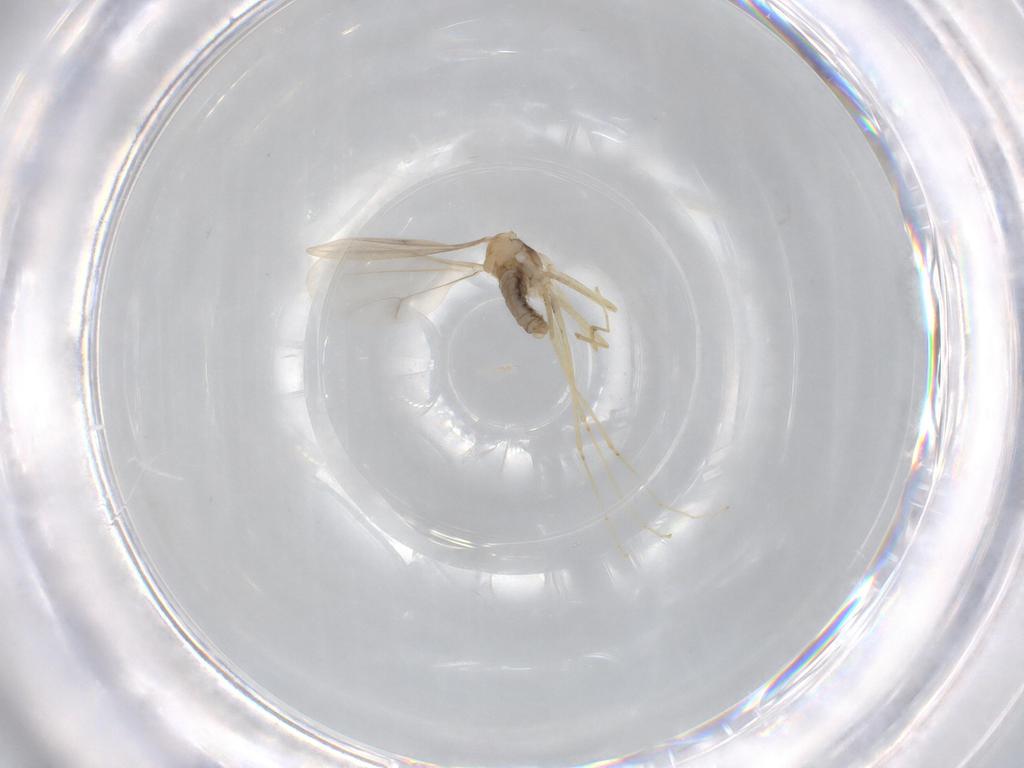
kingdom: Animalia
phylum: Arthropoda
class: Insecta
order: Diptera
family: Cecidomyiidae
